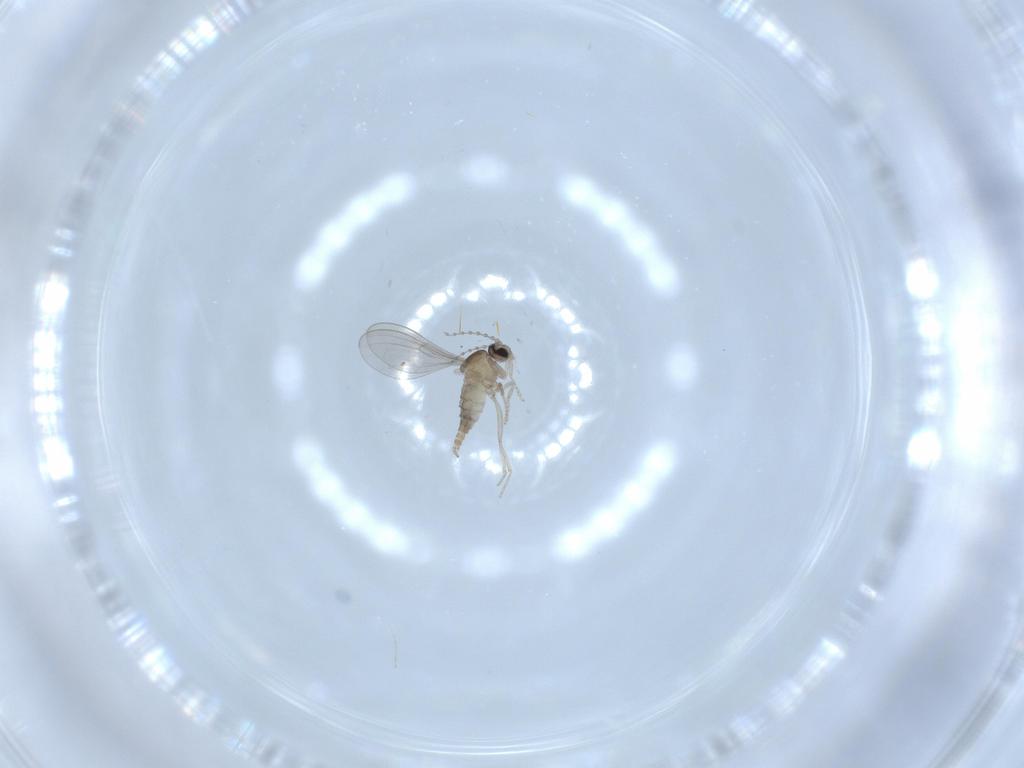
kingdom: Animalia
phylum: Arthropoda
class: Insecta
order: Diptera
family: Cecidomyiidae
